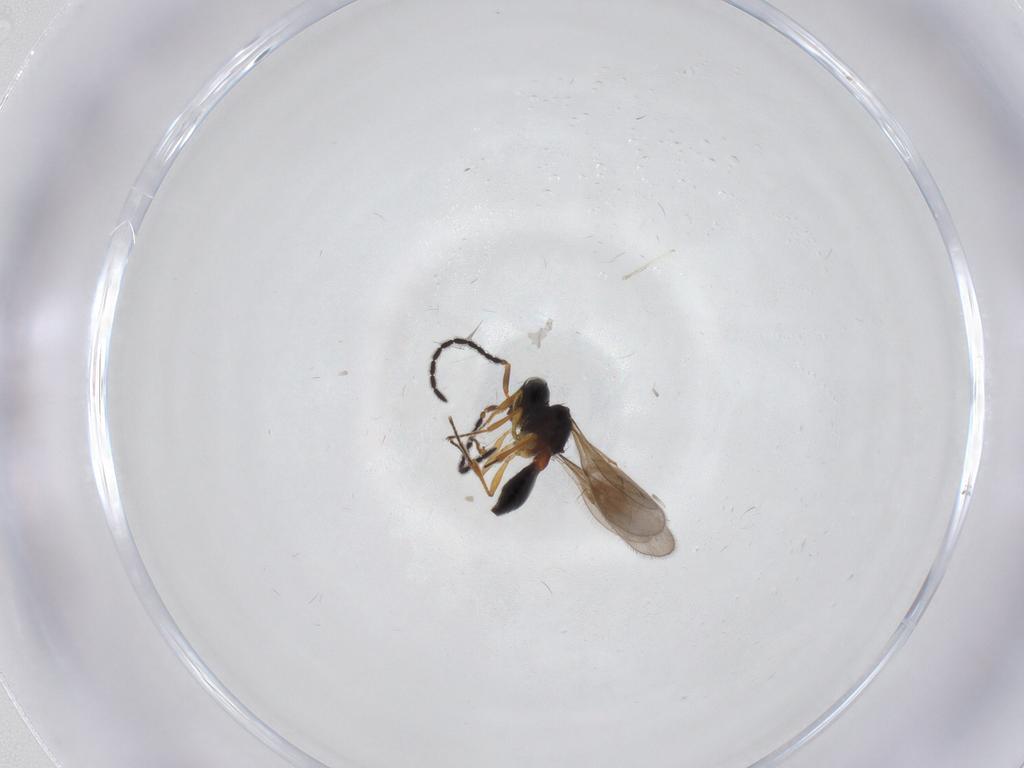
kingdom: Animalia
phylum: Arthropoda
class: Insecta
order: Hymenoptera
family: Scelionidae
